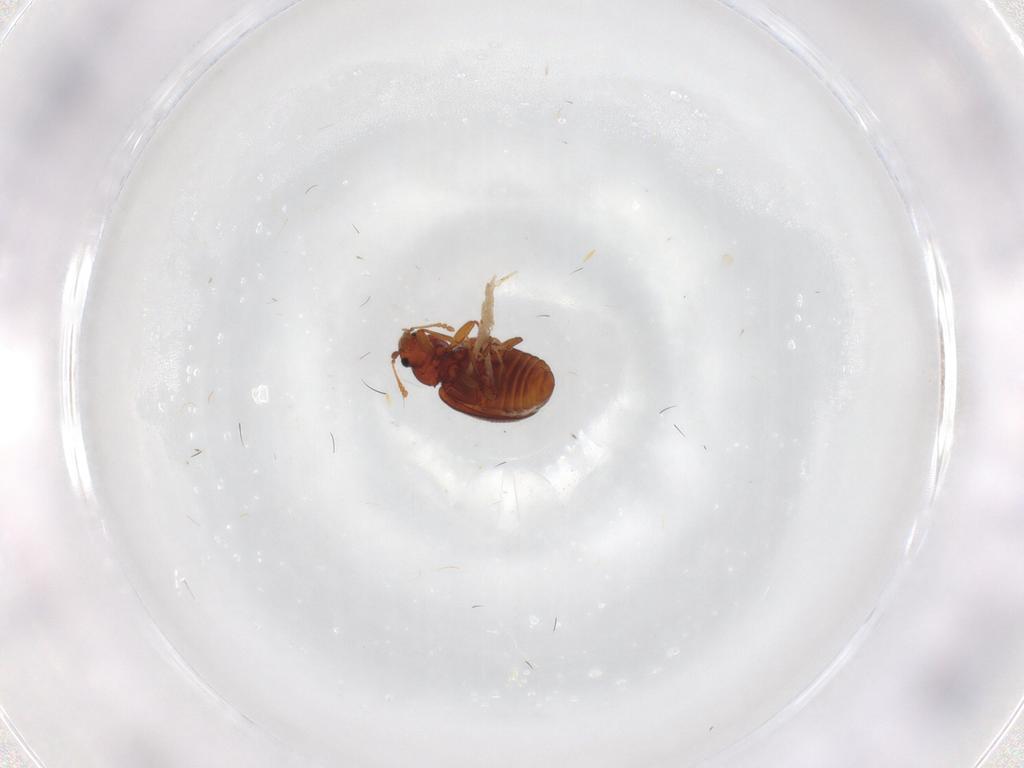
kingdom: Animalia
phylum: Arthropoda
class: Insecta
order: Coleoptera
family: Latridiidae
